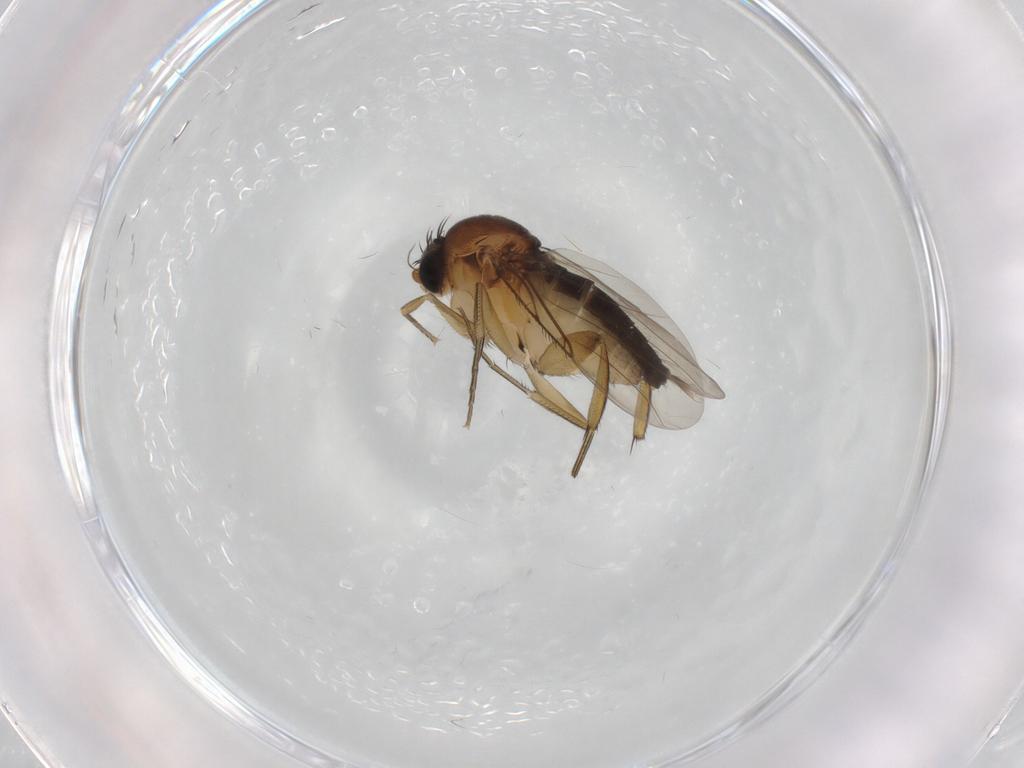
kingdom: Animalia
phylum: Arthropoda
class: Insecta
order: Diptera
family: Phoridae
